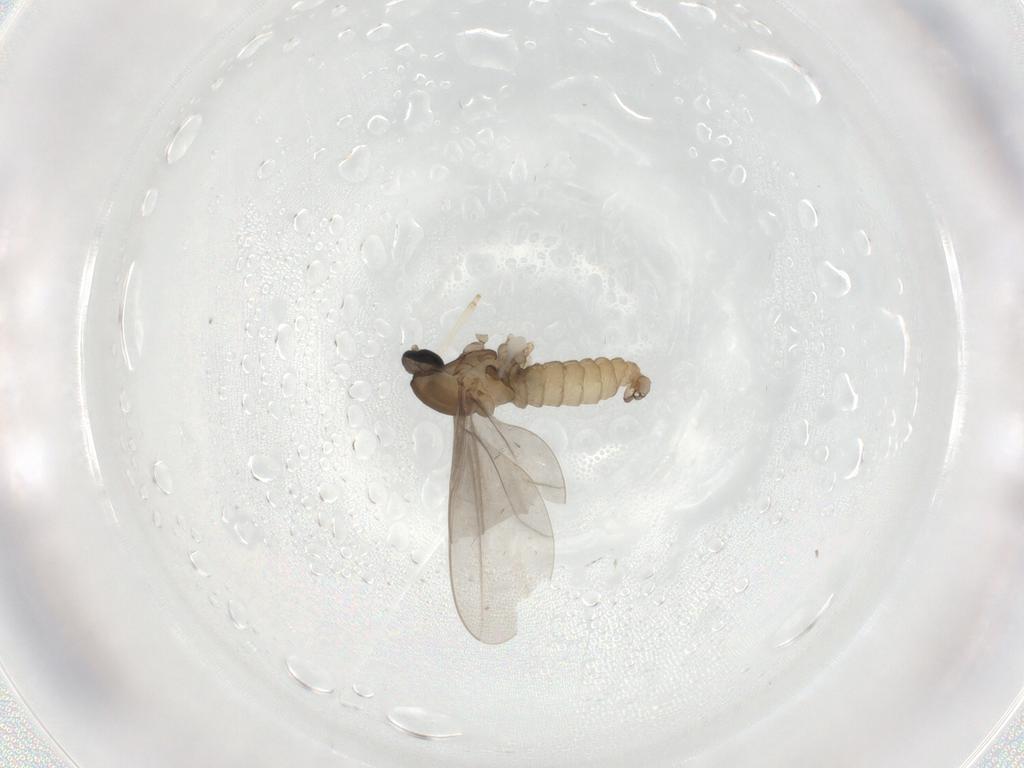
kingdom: Animalia
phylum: Arthropoda
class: Insecta
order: Diptera
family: Cecidomyiidae
